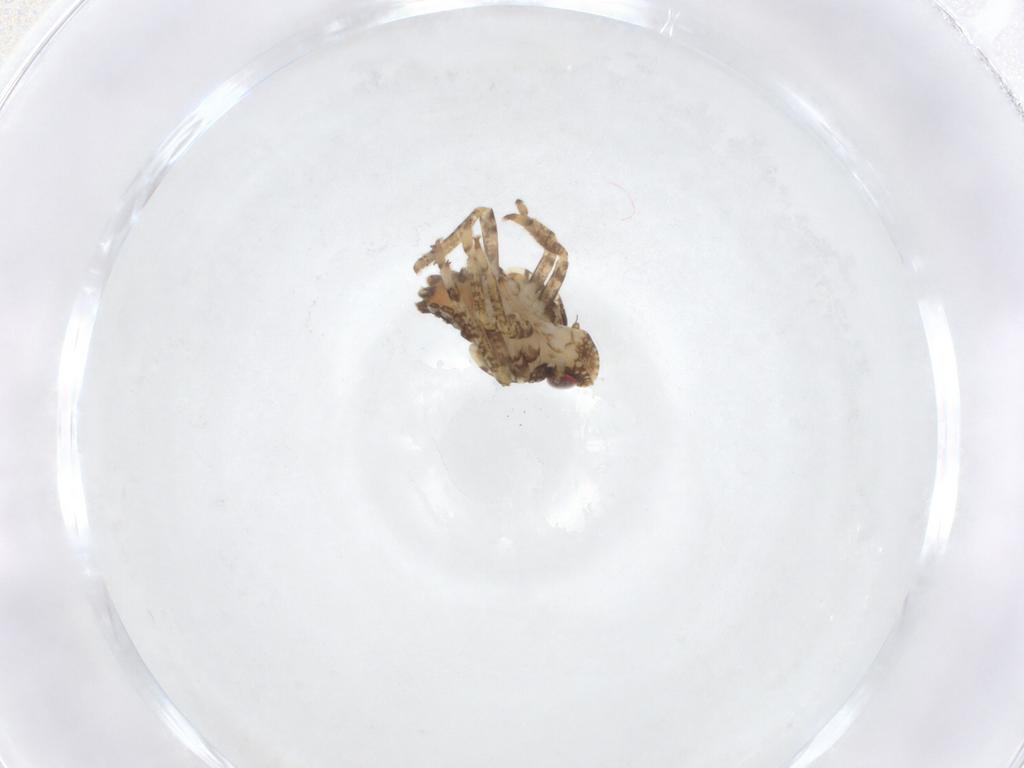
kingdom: Animalia
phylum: Arthropoda
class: Insecta
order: Hemiptera
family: Issidae
